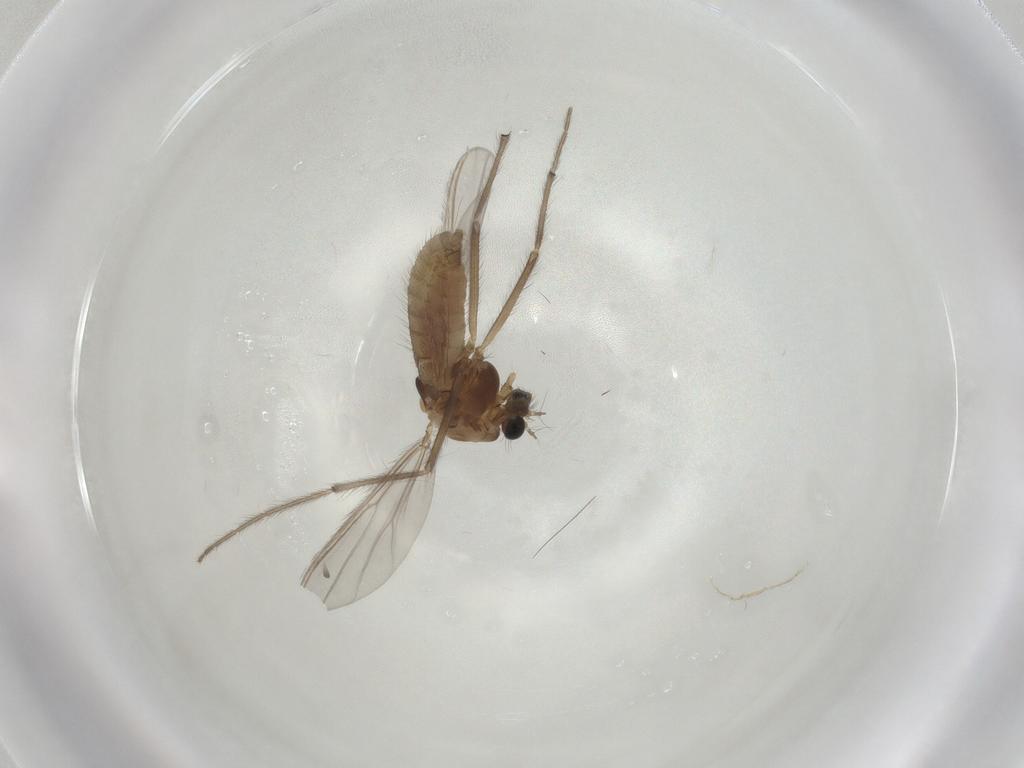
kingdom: Animalia
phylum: Arthropoda
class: Insecta
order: Diptera
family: Chironomidae
